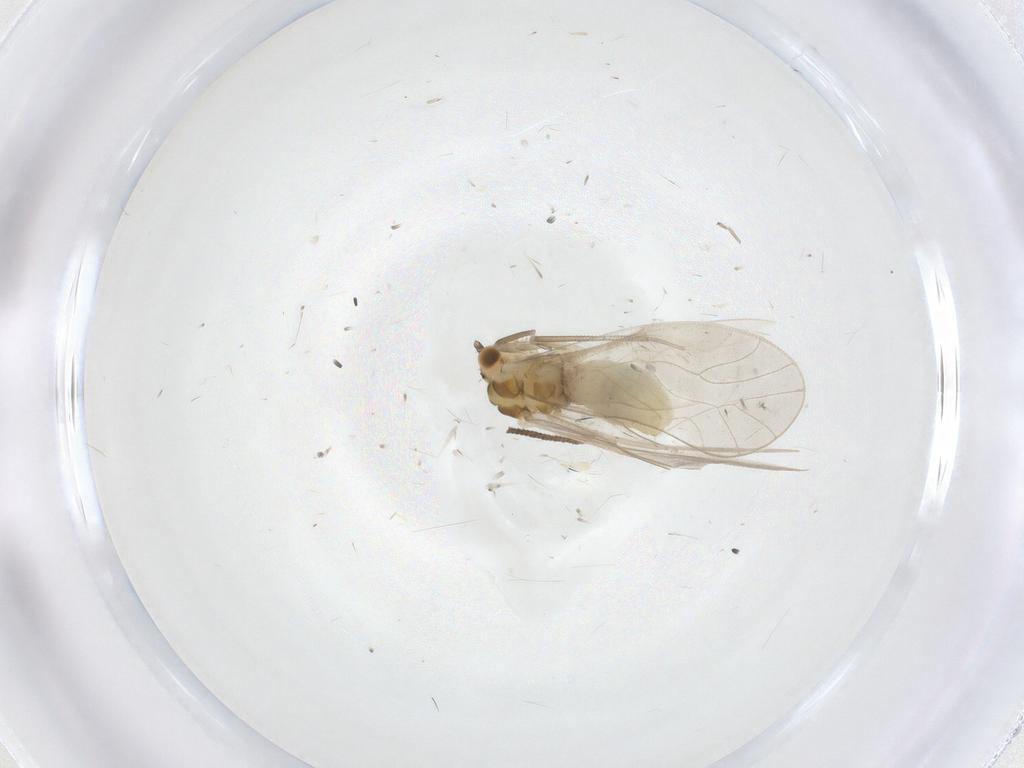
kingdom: Animalia
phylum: Arthropoda
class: Insecta
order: Psocodea
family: Caeciliusidae
